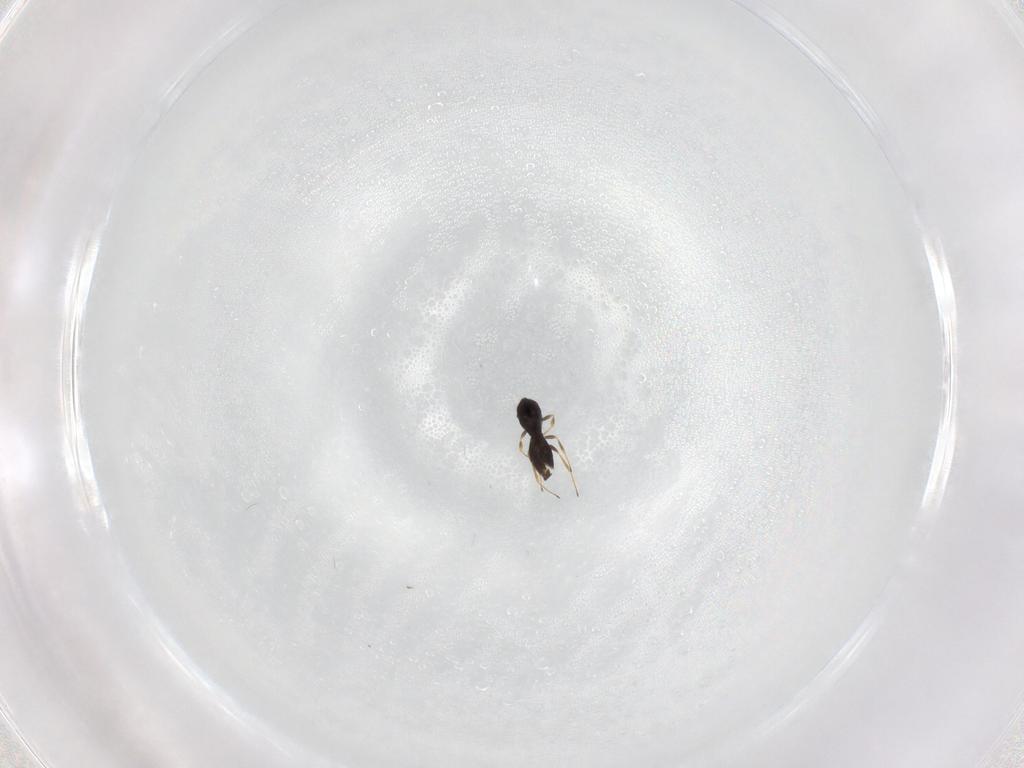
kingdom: Animalia
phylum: Arthropoda
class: Insecta
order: Hymenoptera
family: Scelionidae
